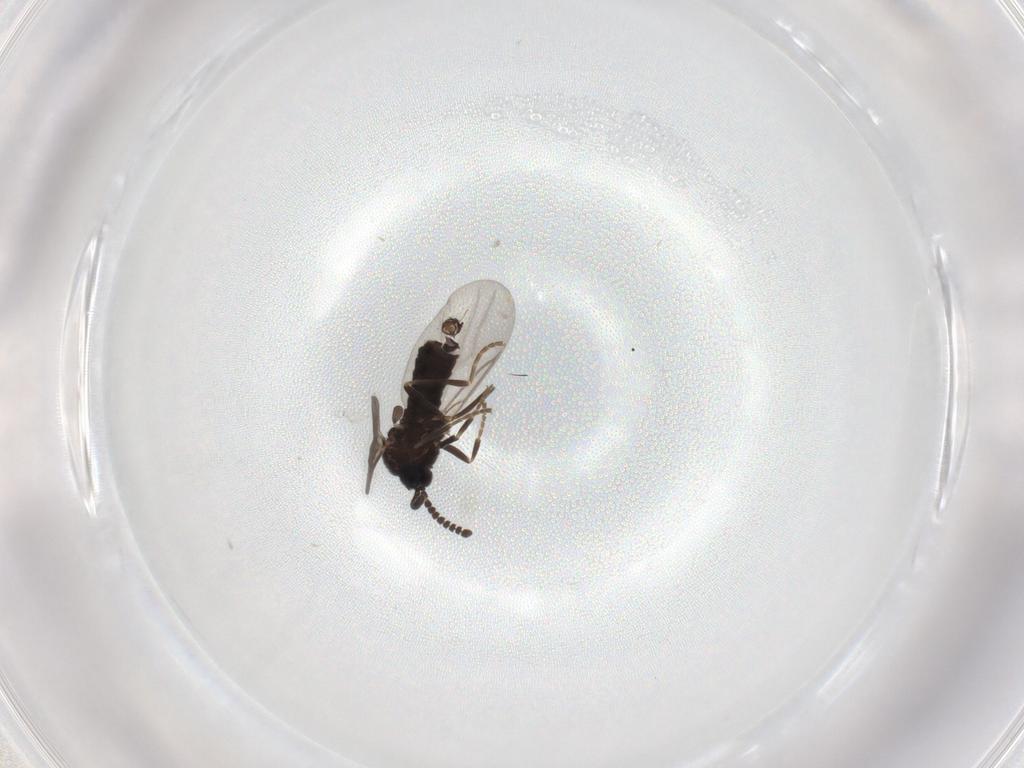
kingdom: Animalia
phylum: Arthropoda
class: Insecta
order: Diptera
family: Scatopsidae
